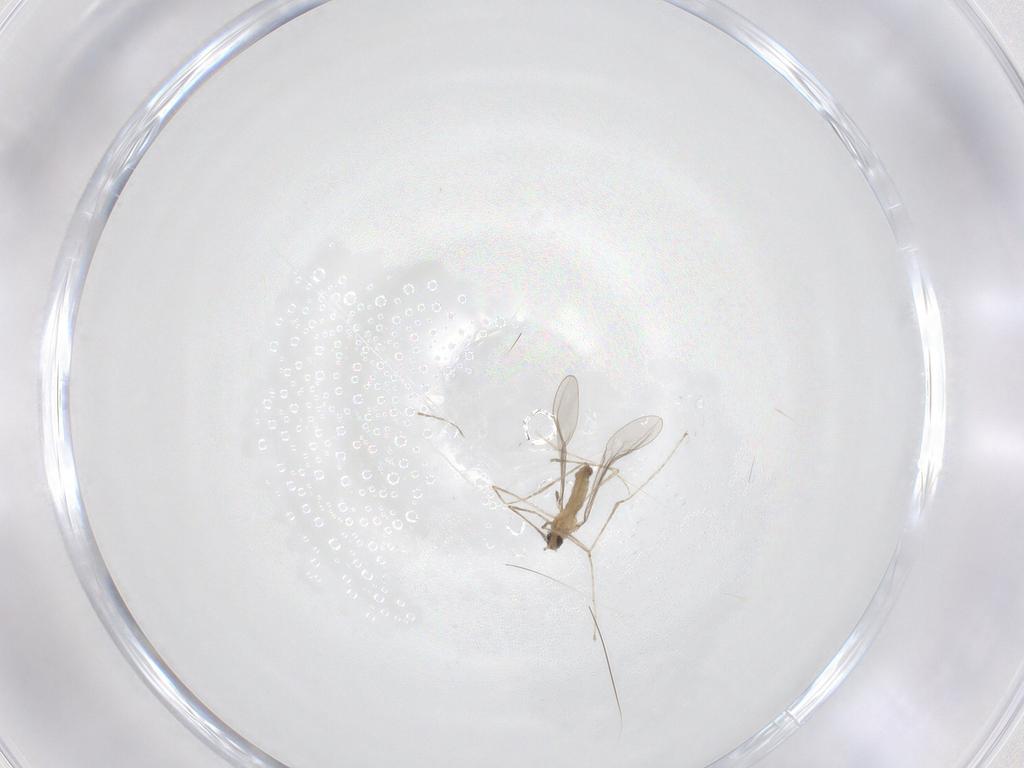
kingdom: Animalia
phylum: Arthropoda
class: Insecta
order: Diptera
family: Cecidomyiidae
